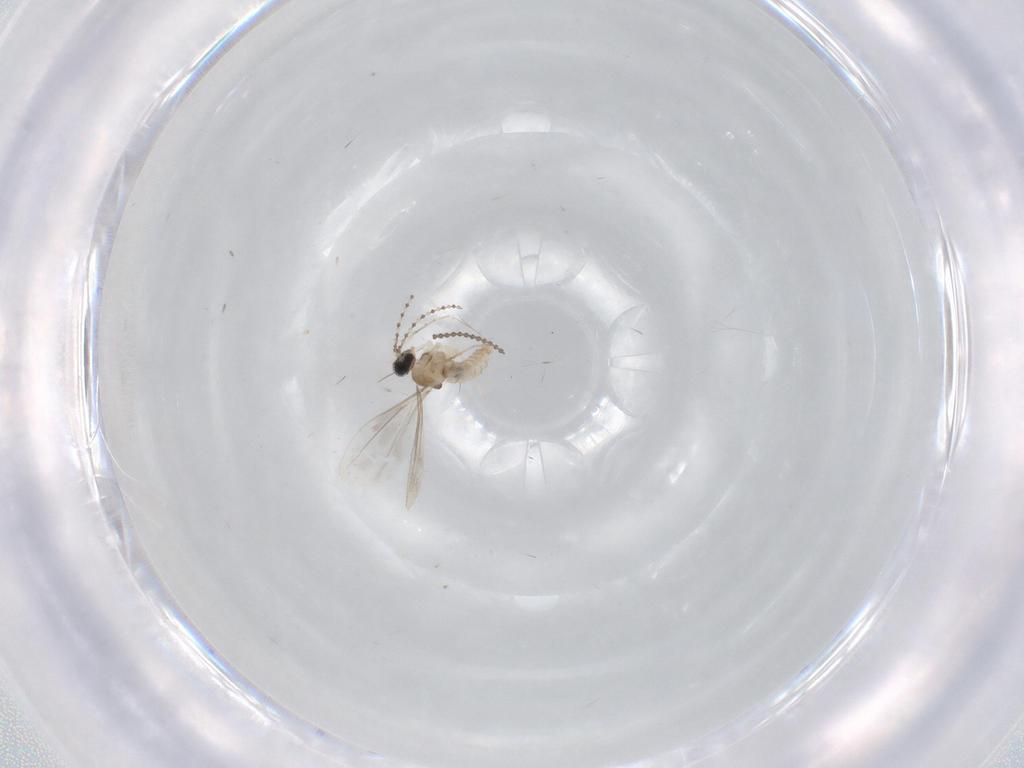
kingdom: Animalia
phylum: Arthropoda
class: Insecta
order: Diptera
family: Cecidomyiidae
